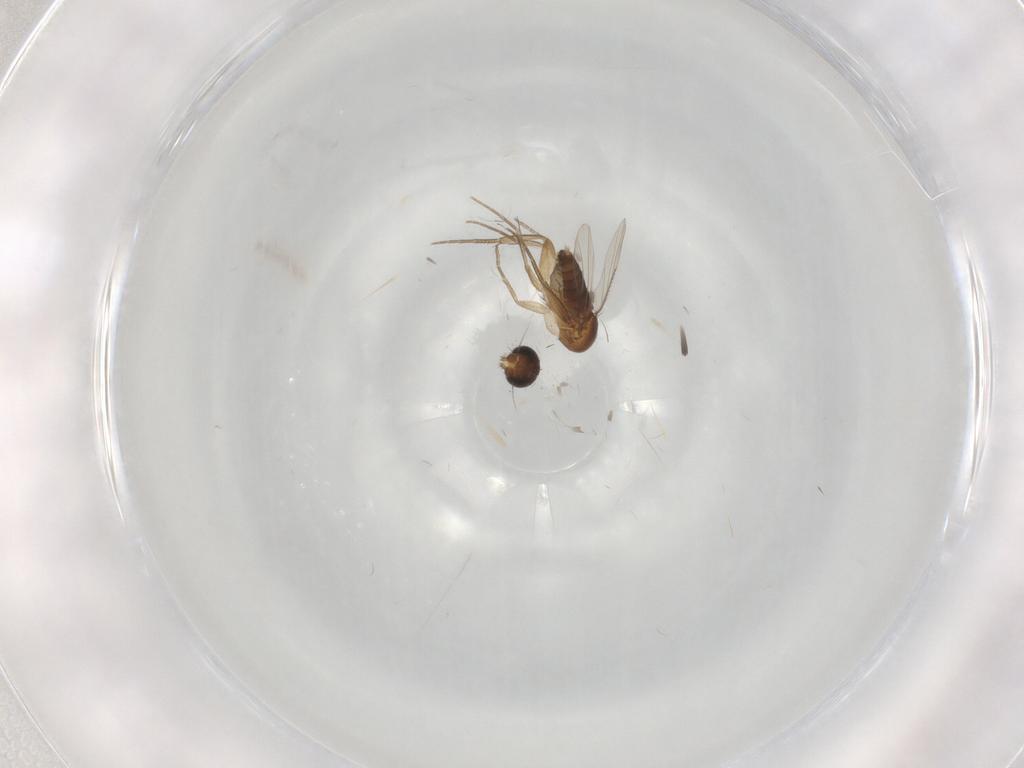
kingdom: Animalia
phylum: Arthropoda
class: Insecta
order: Diptera
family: Phoridae
